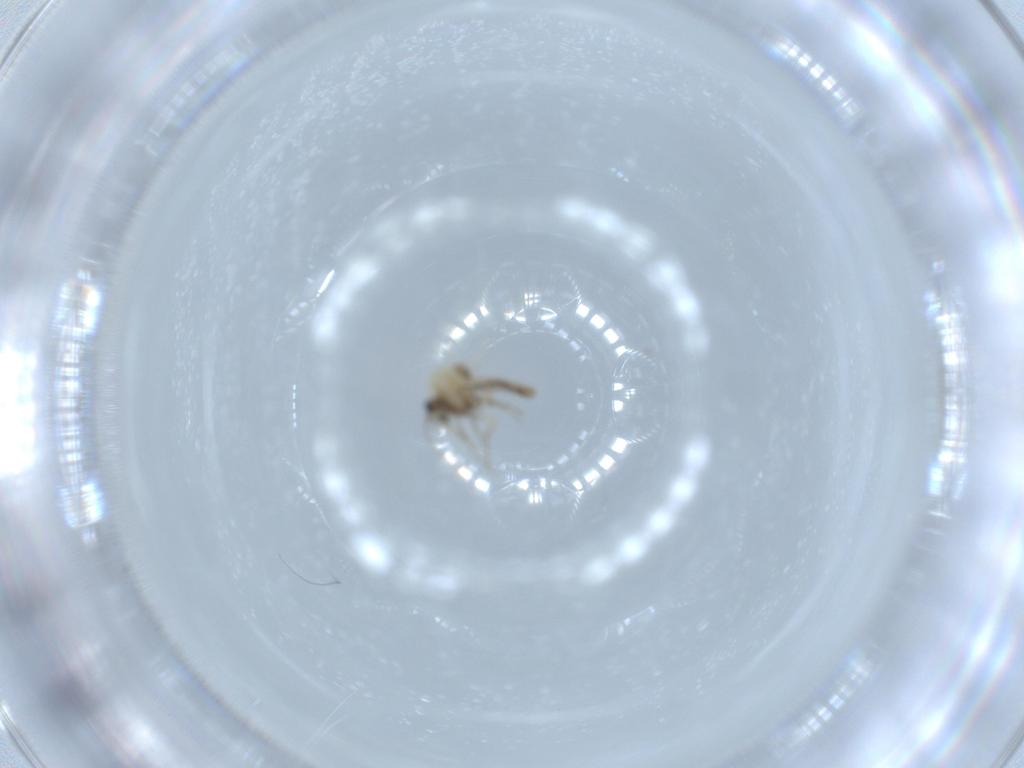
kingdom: Animalia
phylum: Arthropoda
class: Insecta
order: Diptera
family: Ceratopogonidae
